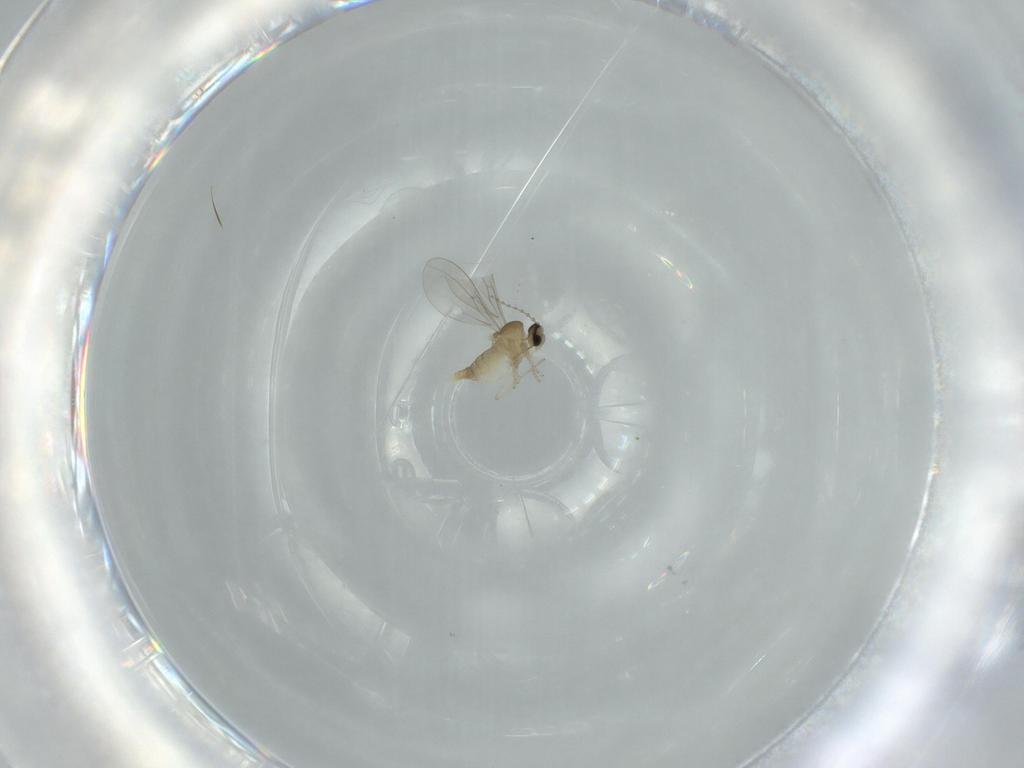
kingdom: Animalia
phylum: Arthropoda
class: Insecta
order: Diptera
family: Cecidomyiidae
